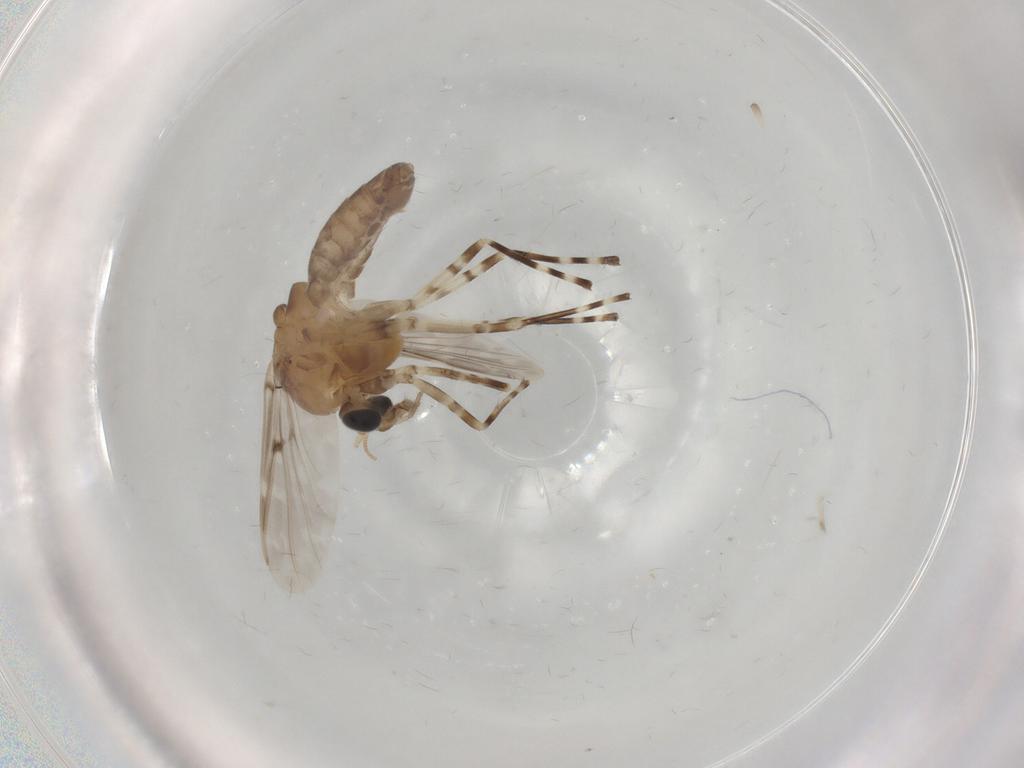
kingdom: Animalia
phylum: Arthropoda
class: Insecta
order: Diptera
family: Chironomidae
